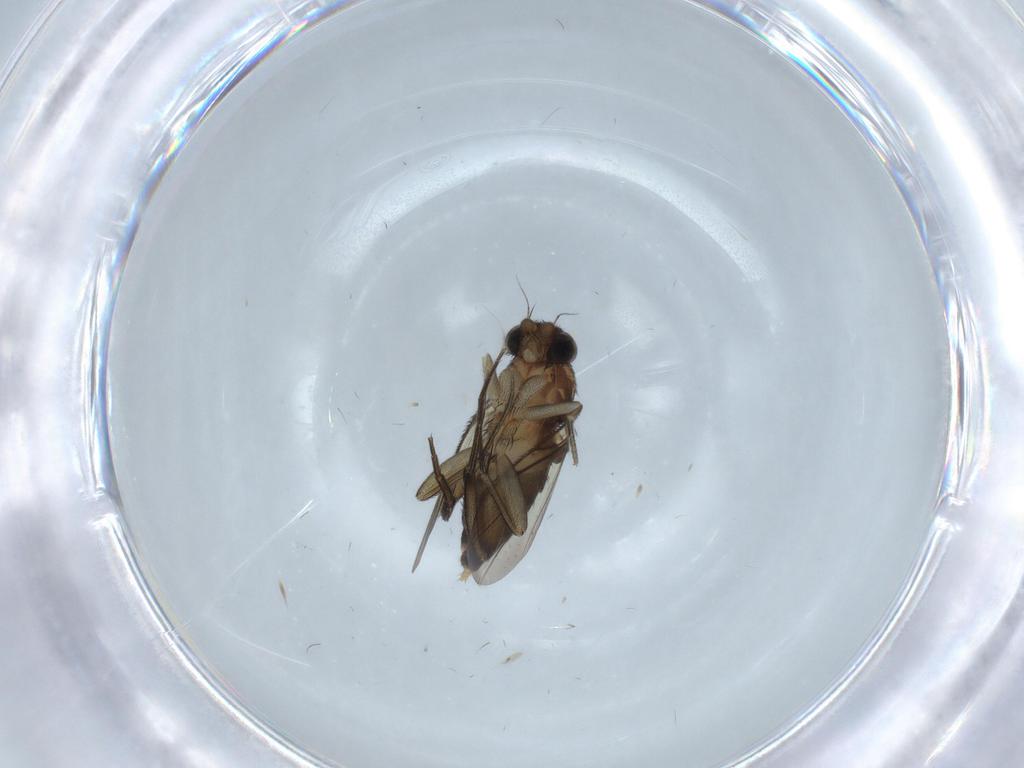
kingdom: Animalia
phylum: Arthropoda
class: Insecta
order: Diptera
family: Phoridae
